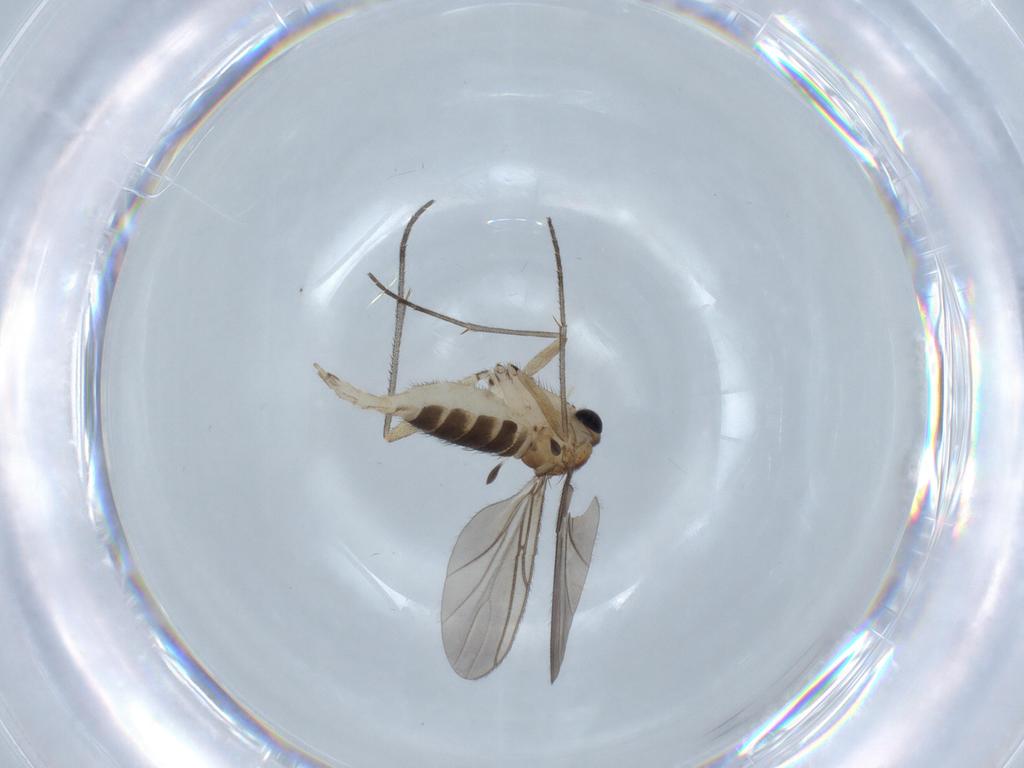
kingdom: Animalia
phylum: Arthropoda
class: Insecta
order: Diptera
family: Sciaridae
